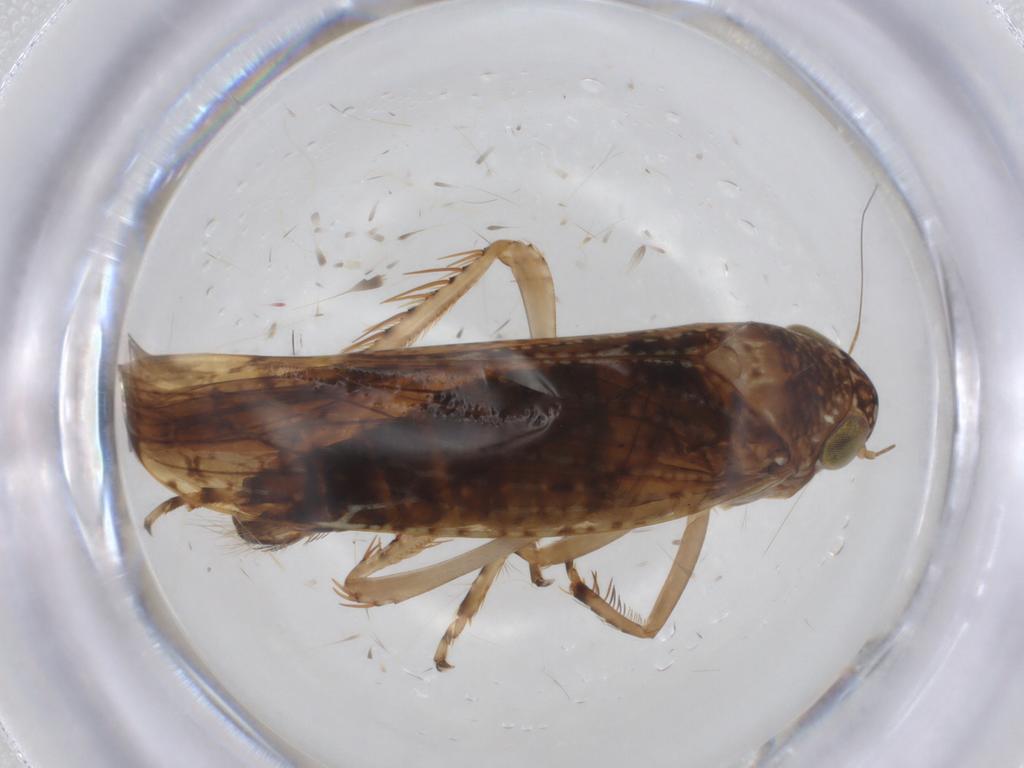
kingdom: Animalia
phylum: Arthropoda
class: Insecta
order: Hemiptera
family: Cicadellidae
